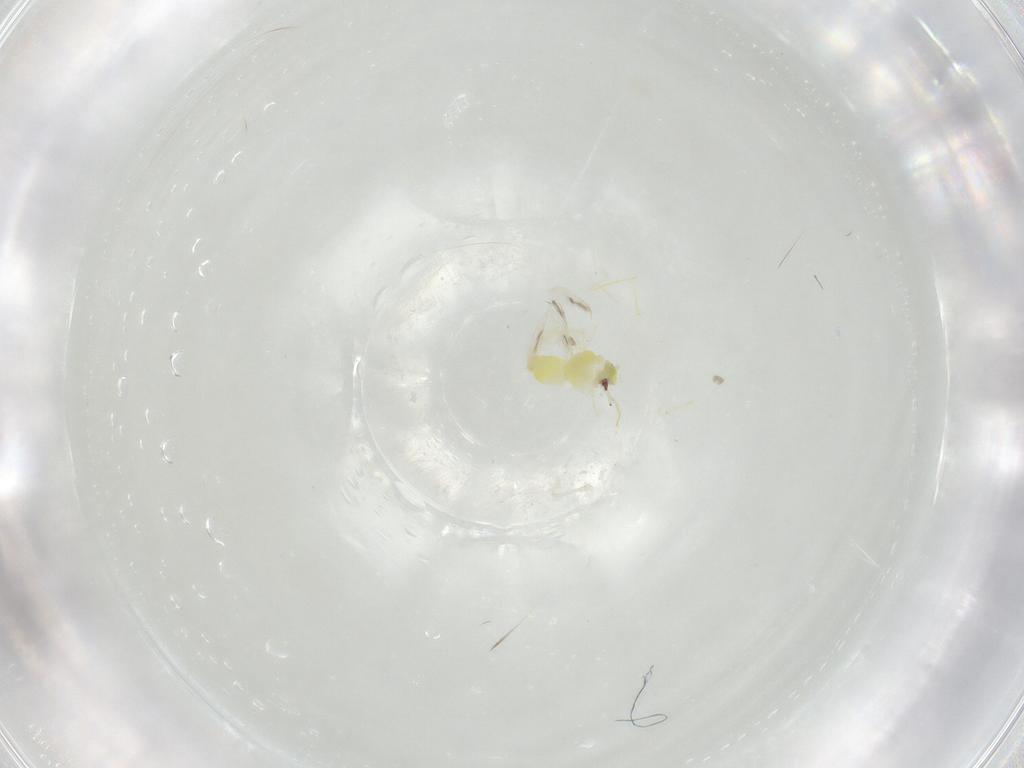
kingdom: Animalia
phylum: Arthropoda
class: Insecta
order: Hemiptera
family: Aleyrodidae
